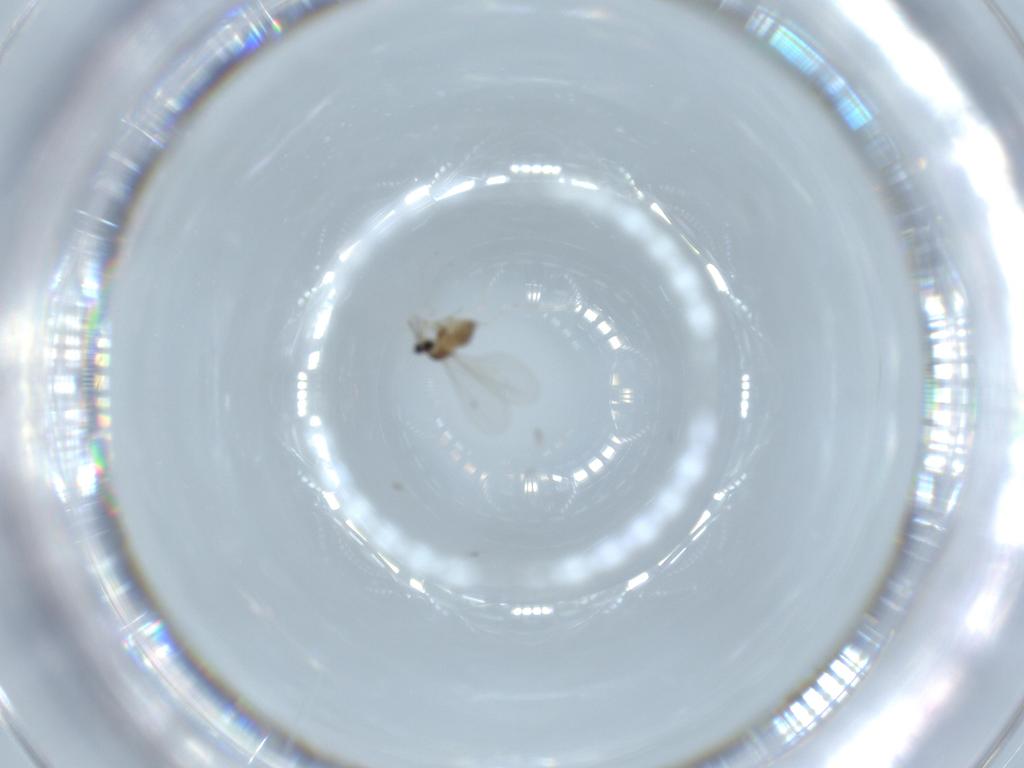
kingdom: Animalia
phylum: Arthropoda
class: Insecta
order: Diptera
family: Cecidomyiidae
